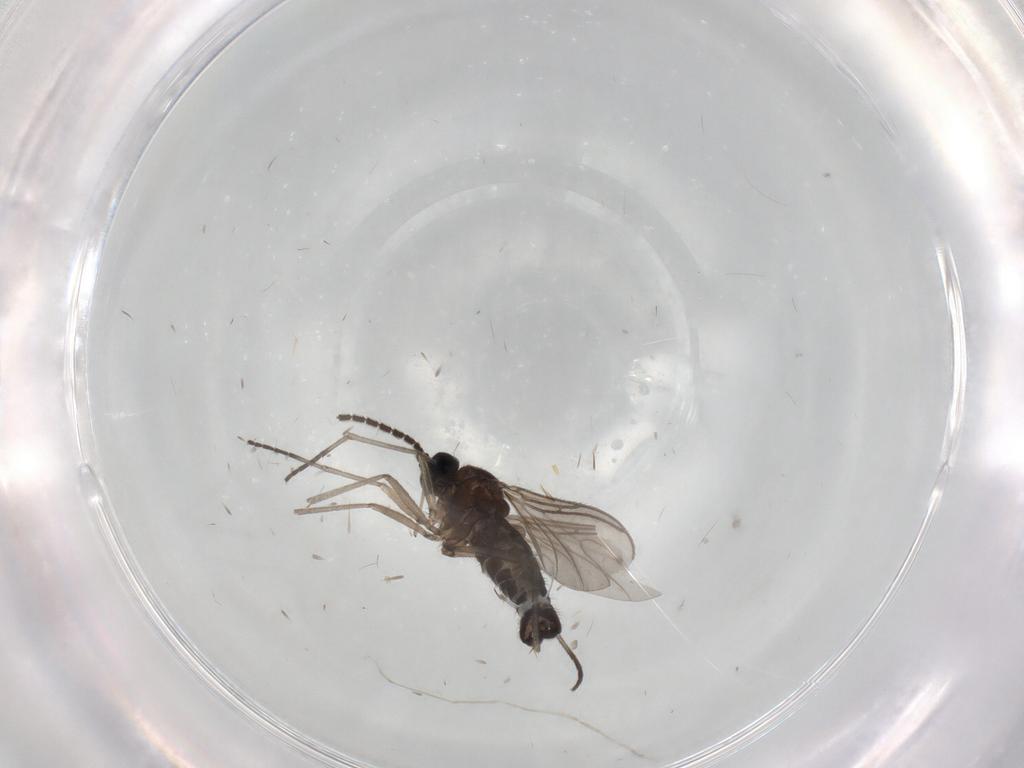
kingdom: Animalia
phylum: Arthropoda
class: Insecta
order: Diptera
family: Sciaridae
